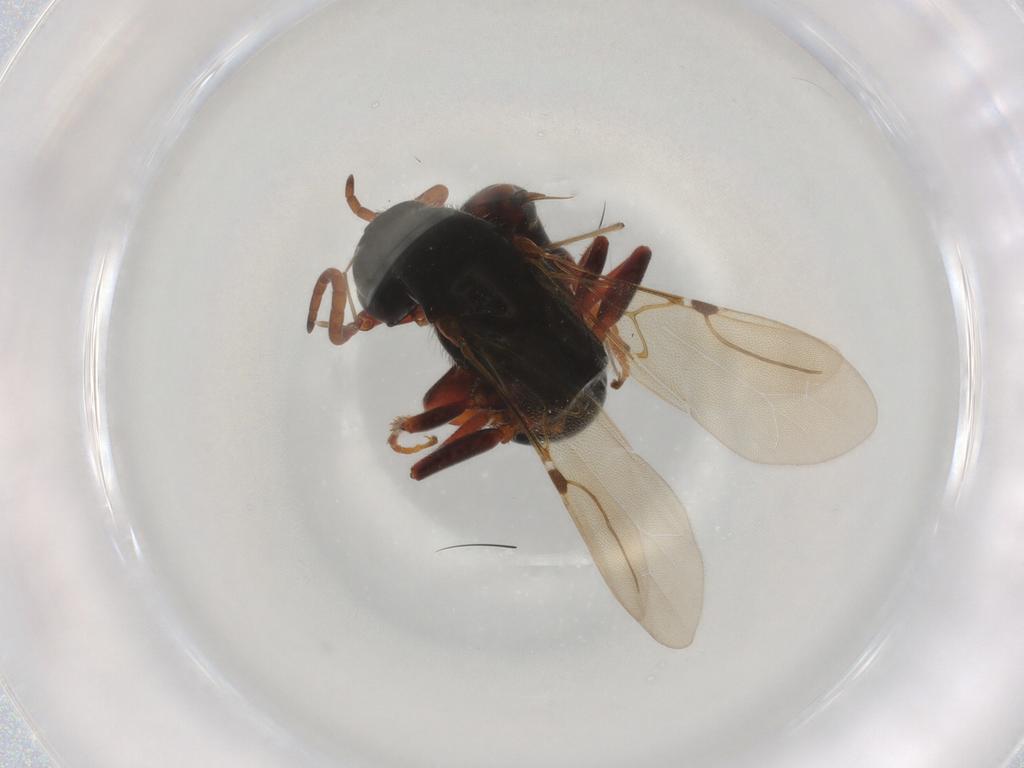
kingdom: Animalia
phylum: Arthropoda
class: Insecta
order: Hymenoptera
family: Bethylidae
